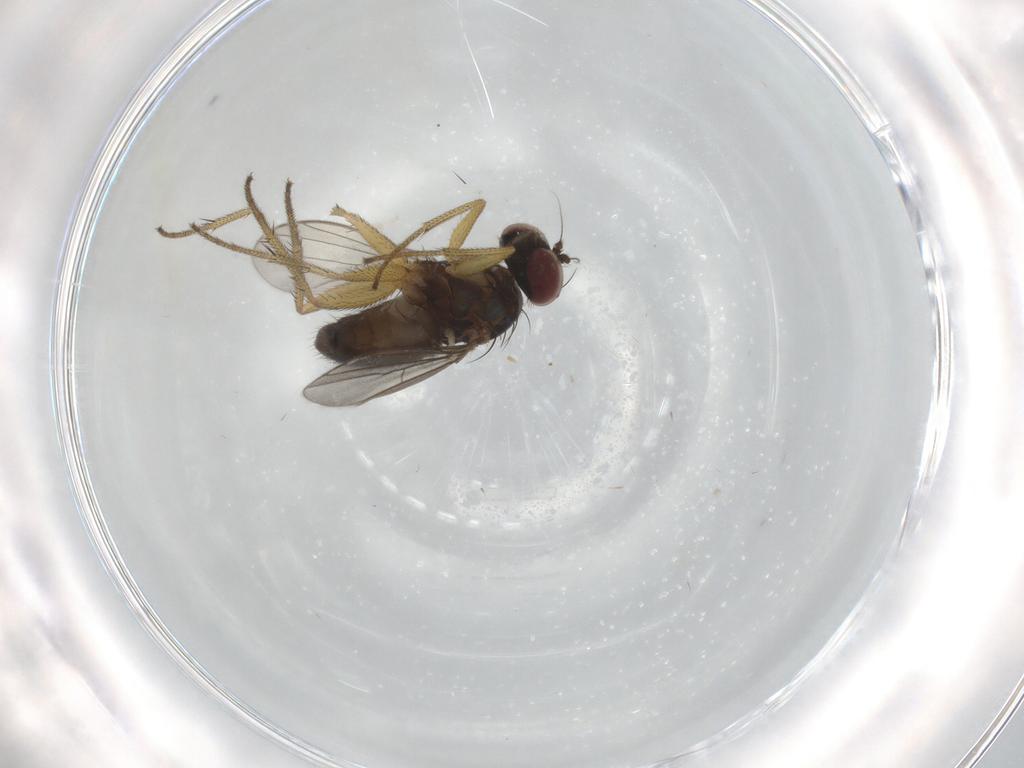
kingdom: Animalia
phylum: Arthropoda
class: Insecta
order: Diptera
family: Dolichopodidae
